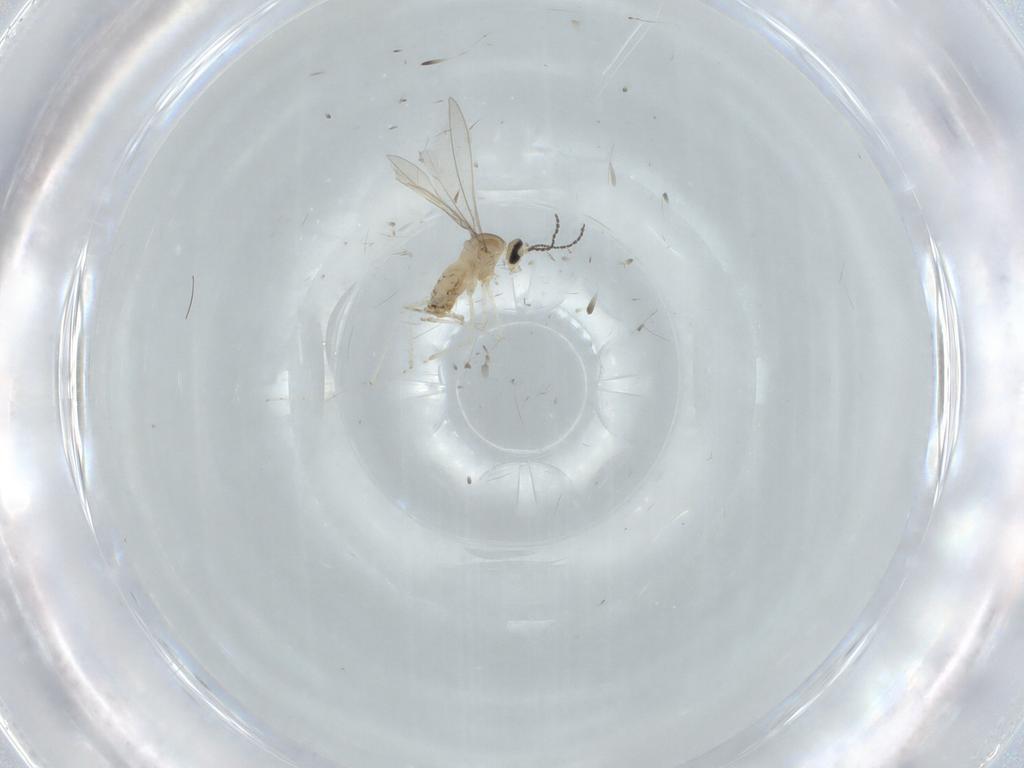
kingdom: Animalia
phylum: Arthropoda
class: Insecta
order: Diptera
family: Cecidomyiidae
